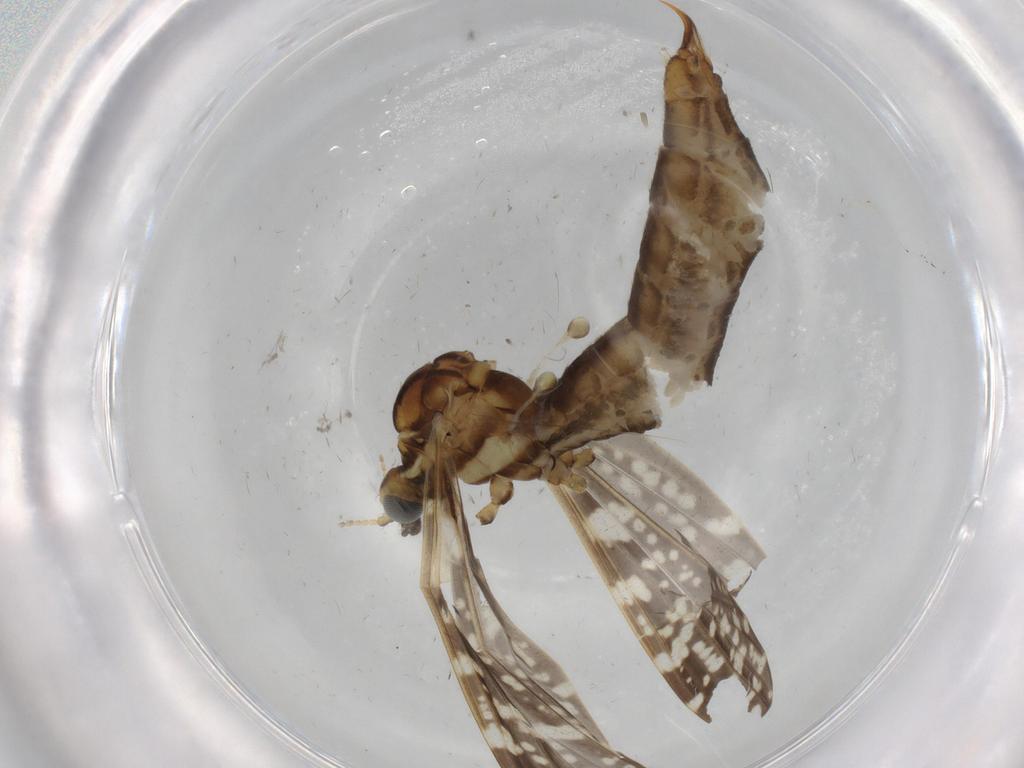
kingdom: Animalia
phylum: Arthropoda
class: Insecta
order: Diptera
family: Limoniidae
